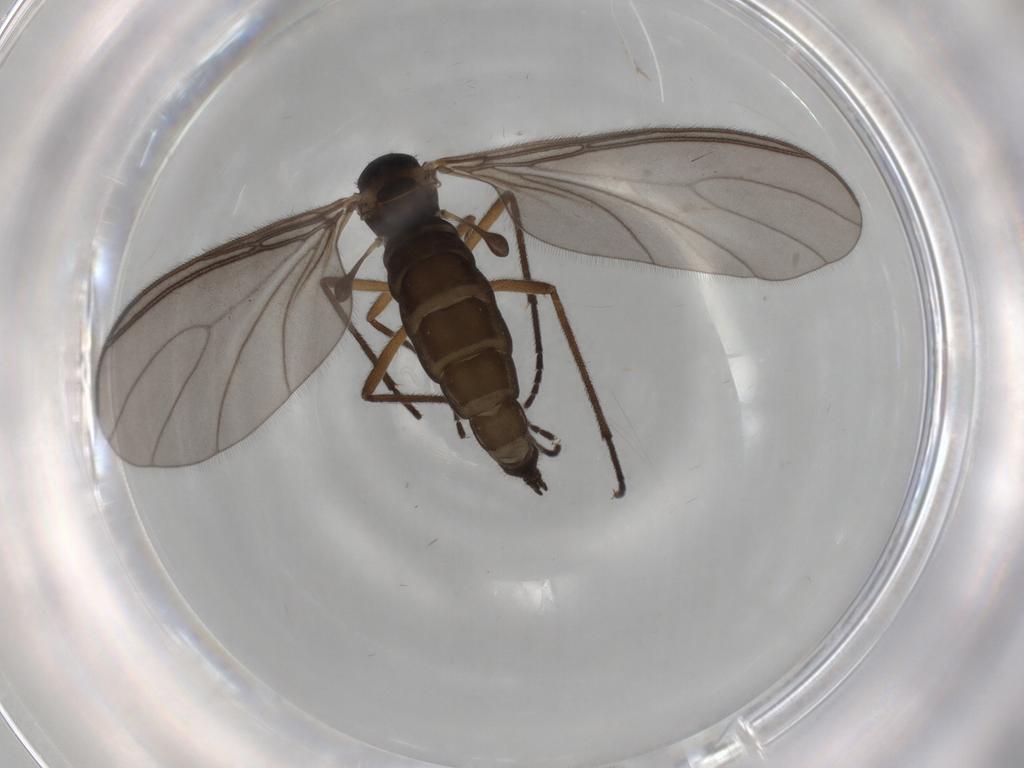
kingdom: Animalia
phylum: Arthropoda
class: Insecta
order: Diptera
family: Sciaridae
